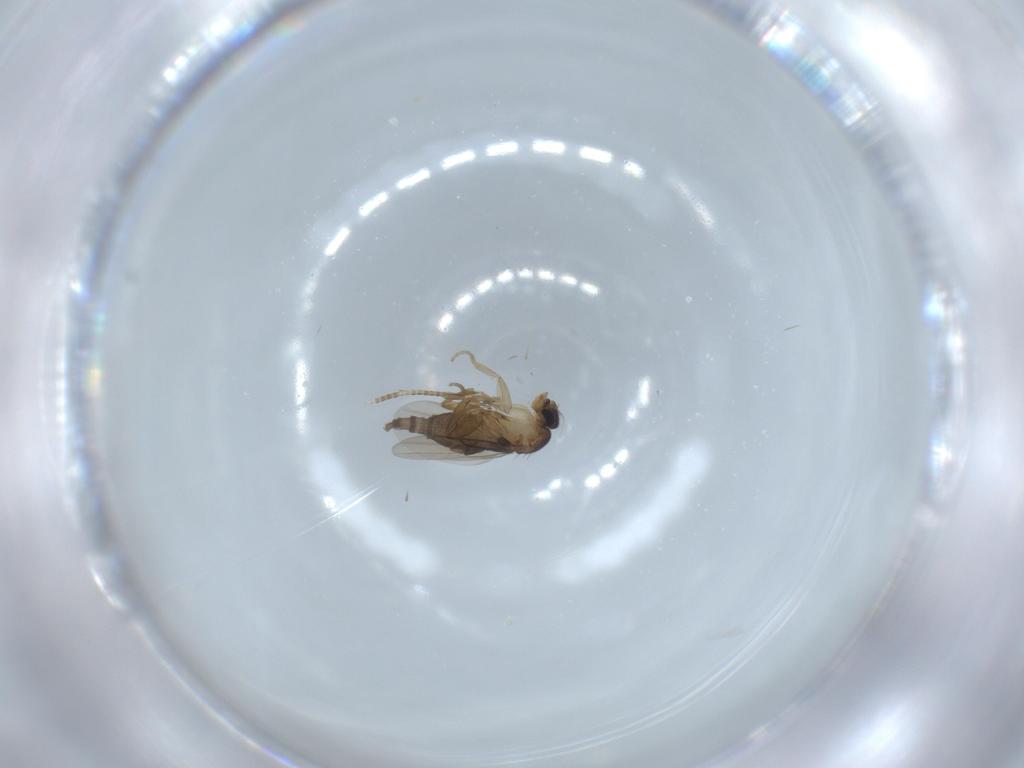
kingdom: Animalia
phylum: Arthropoda
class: Insecta
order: Diptera
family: Phoridae
